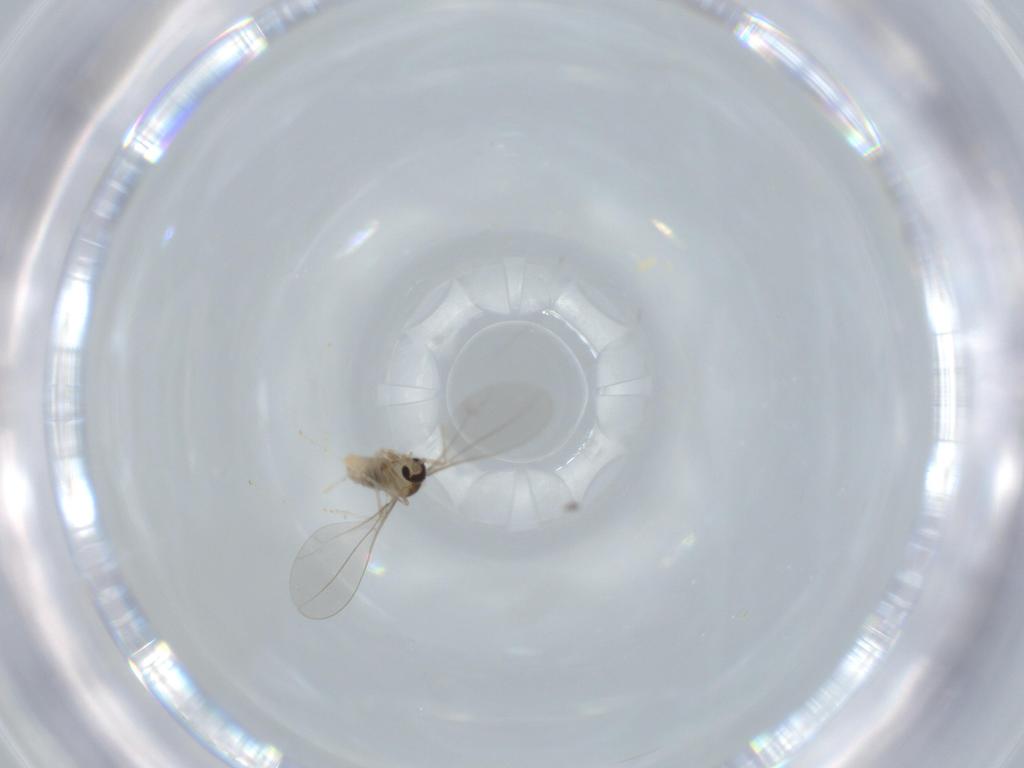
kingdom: Animalia
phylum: Arthropoda
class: Insecta
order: Diptera
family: Cecidomyiidae
